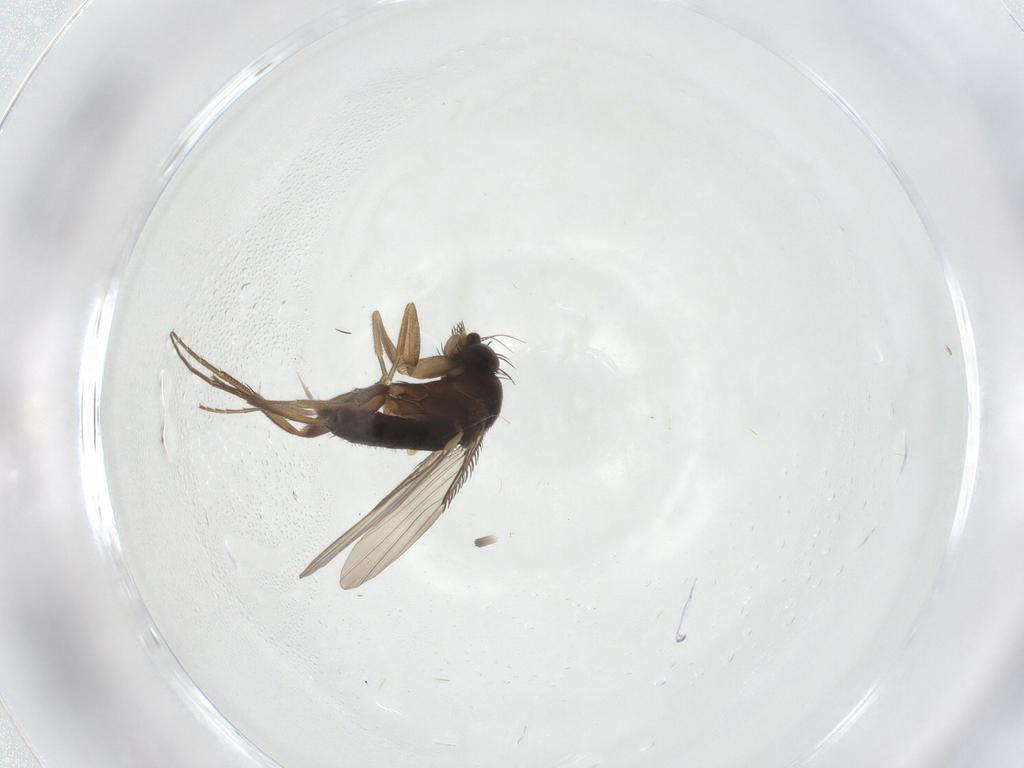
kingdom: Animalia
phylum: Arthropoda
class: Insecta
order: Diptera
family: Phoridae
